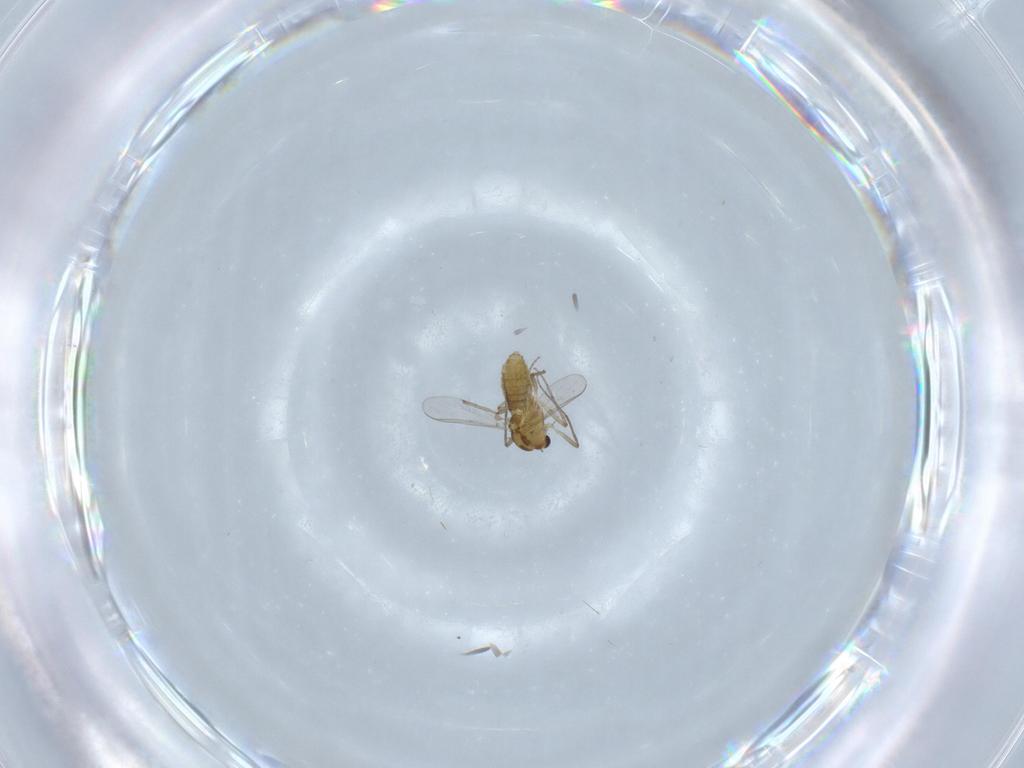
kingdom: Animalia
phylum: Arthropoda
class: Insecta
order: Diptera
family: Chironomidae
